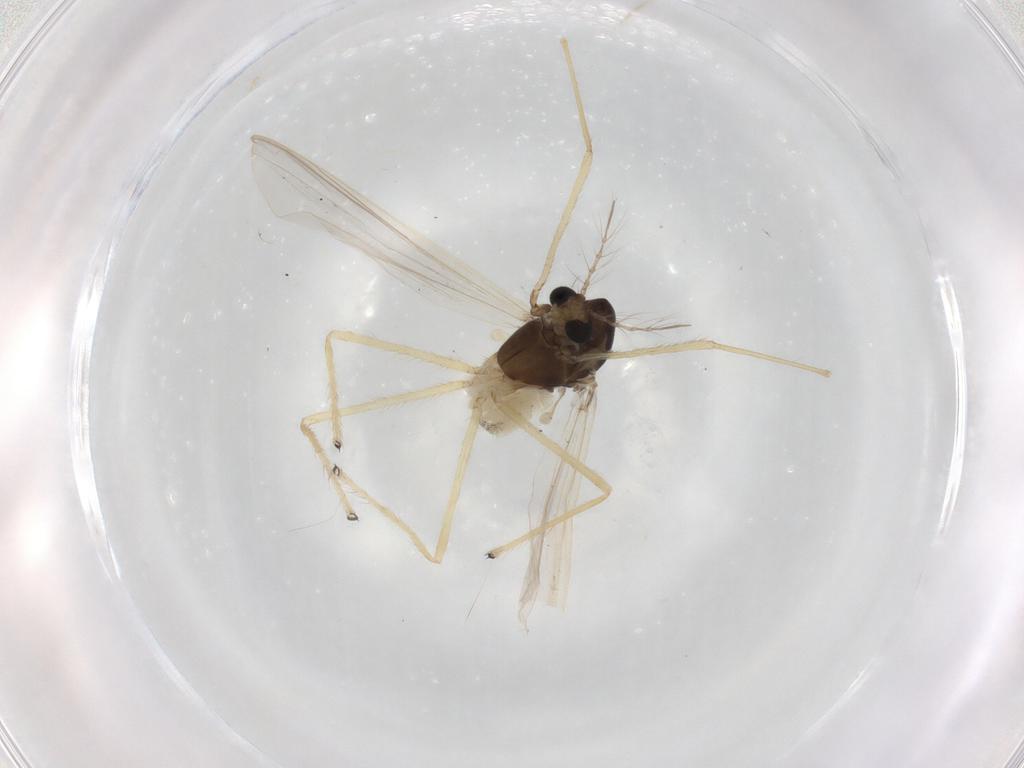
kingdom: Animalia
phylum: Arthropoda
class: Insecta
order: Diptera
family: Chironomidae
